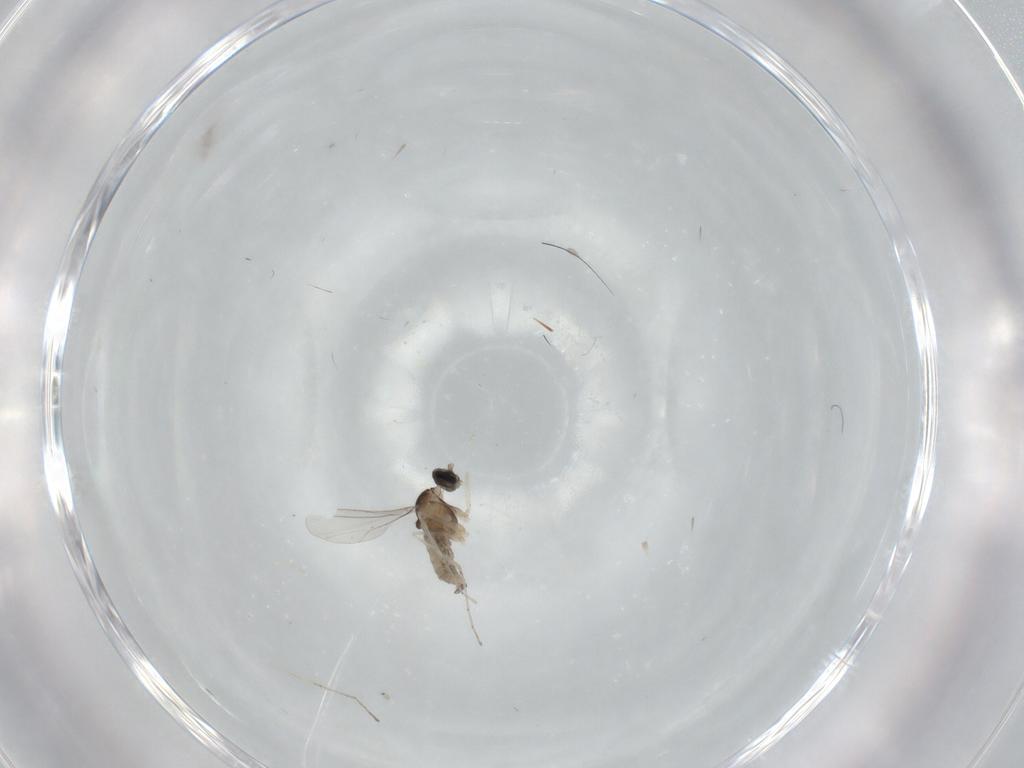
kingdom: Animalia
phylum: Arthropoda
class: Insecta
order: Diptera
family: Cecidomyiidae
